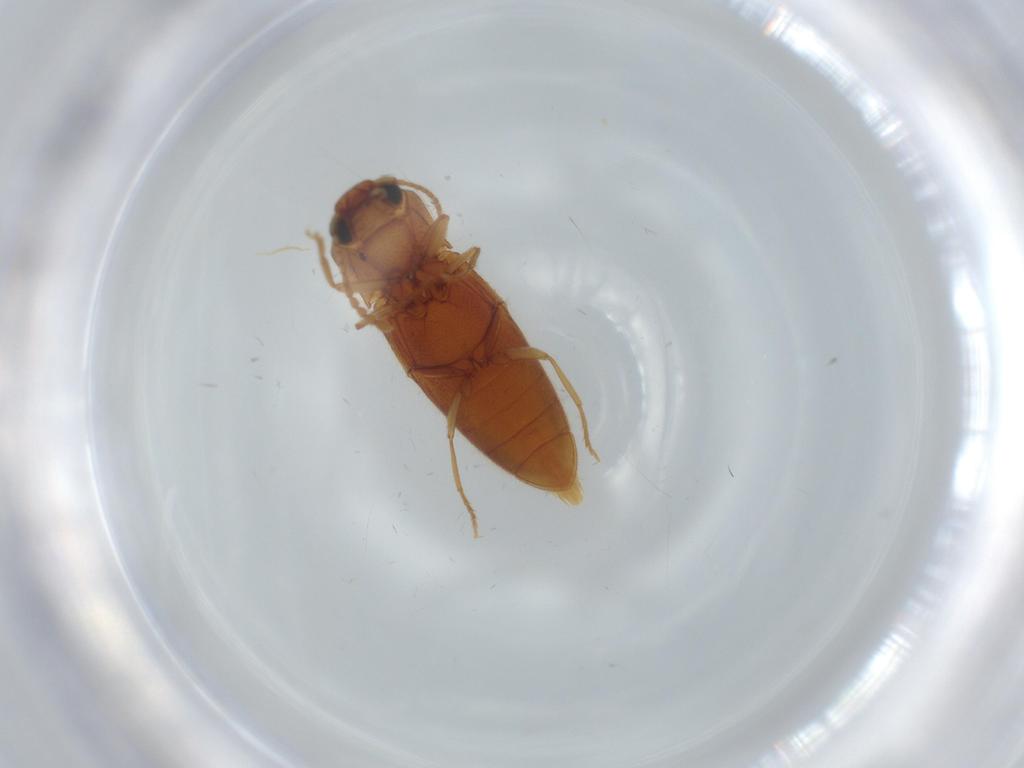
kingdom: Animalia
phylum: Arthropoda
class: Insecta
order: Coleoptera
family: Elateridae
